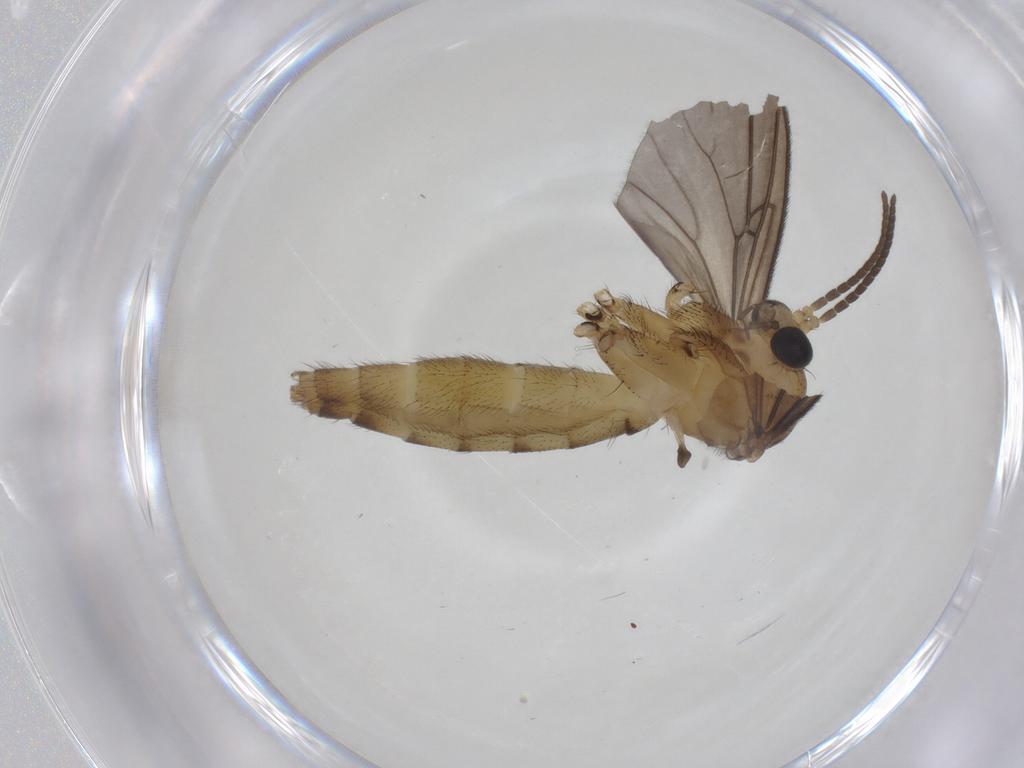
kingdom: Animalia
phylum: Arthropoda
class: Insecta
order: Diptera
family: Mycetophilidae
